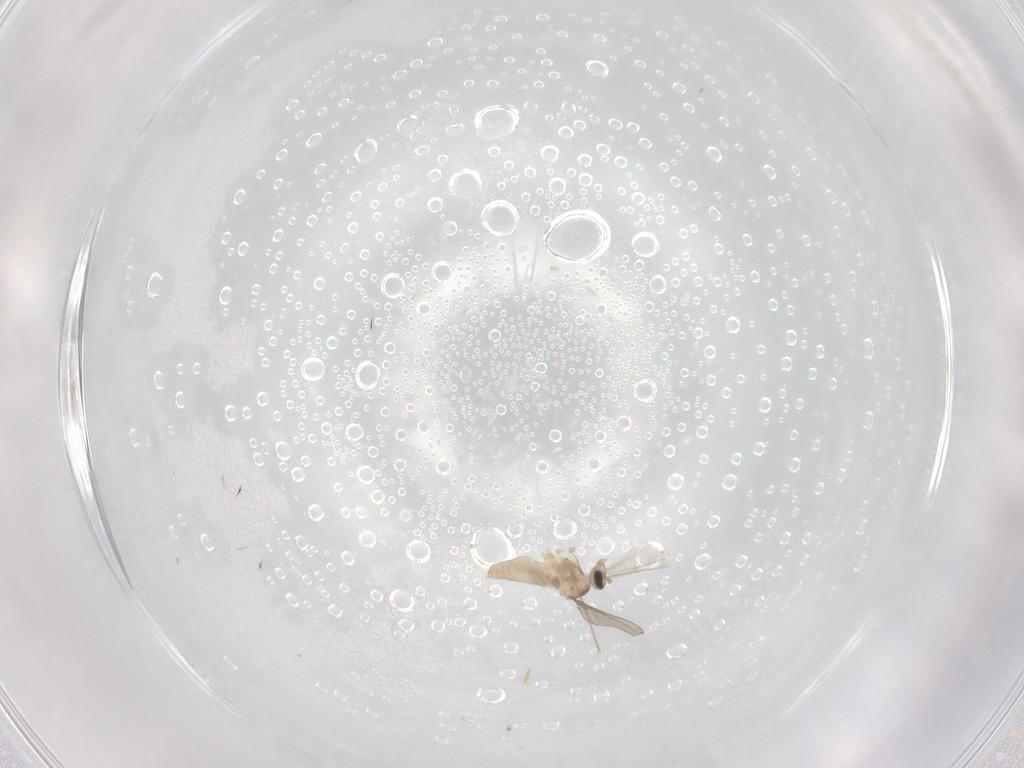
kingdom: Animalia
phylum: Arthropoda
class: Insecta
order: Diptera
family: Cecidomyiidae
